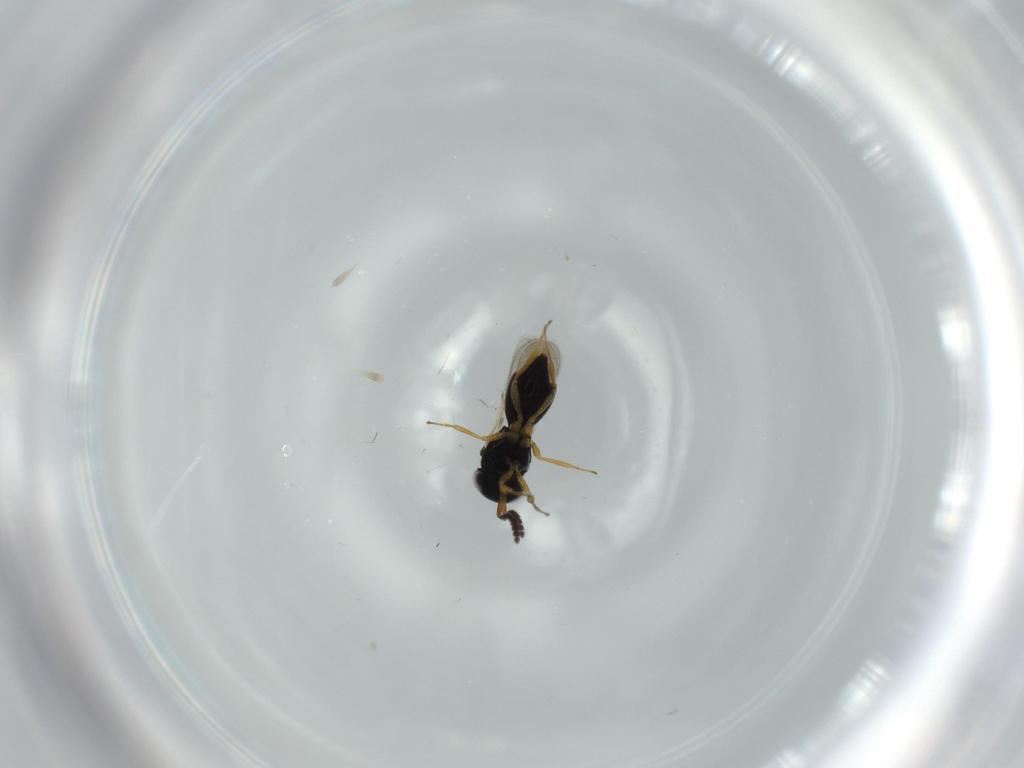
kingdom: Animalia
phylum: Arthropoda
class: Insecta
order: Hymenoptera
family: Scelionidae
